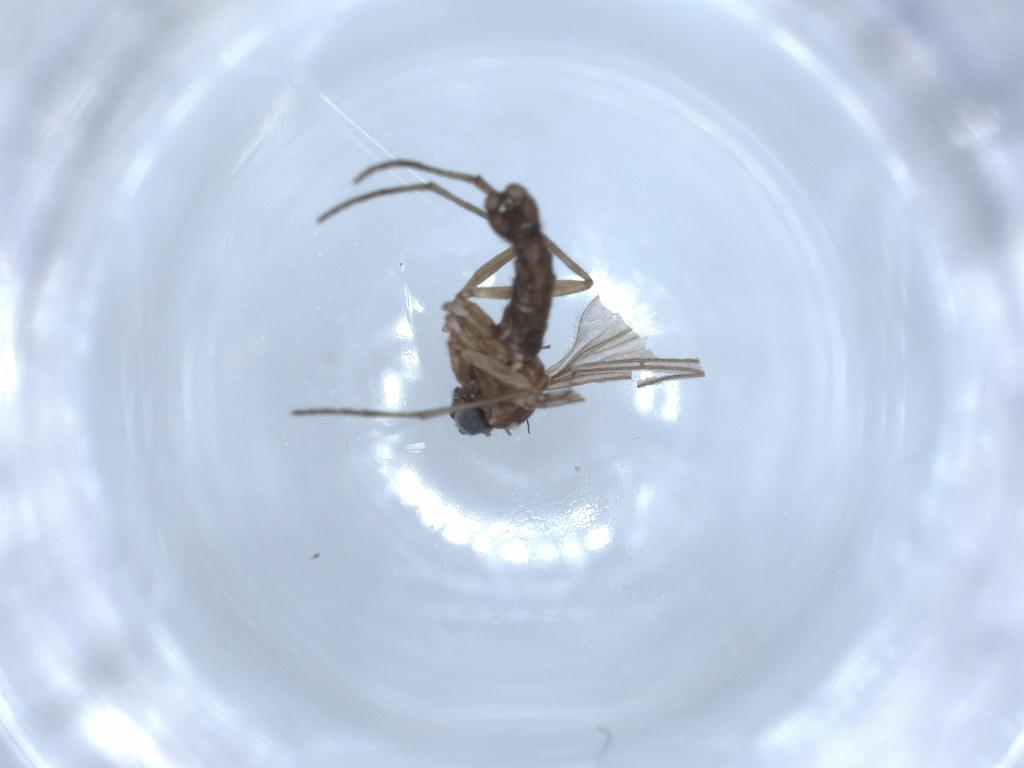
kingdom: Animalia
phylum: Arthropoda
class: Insecta
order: Diptera
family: Sciaridae
